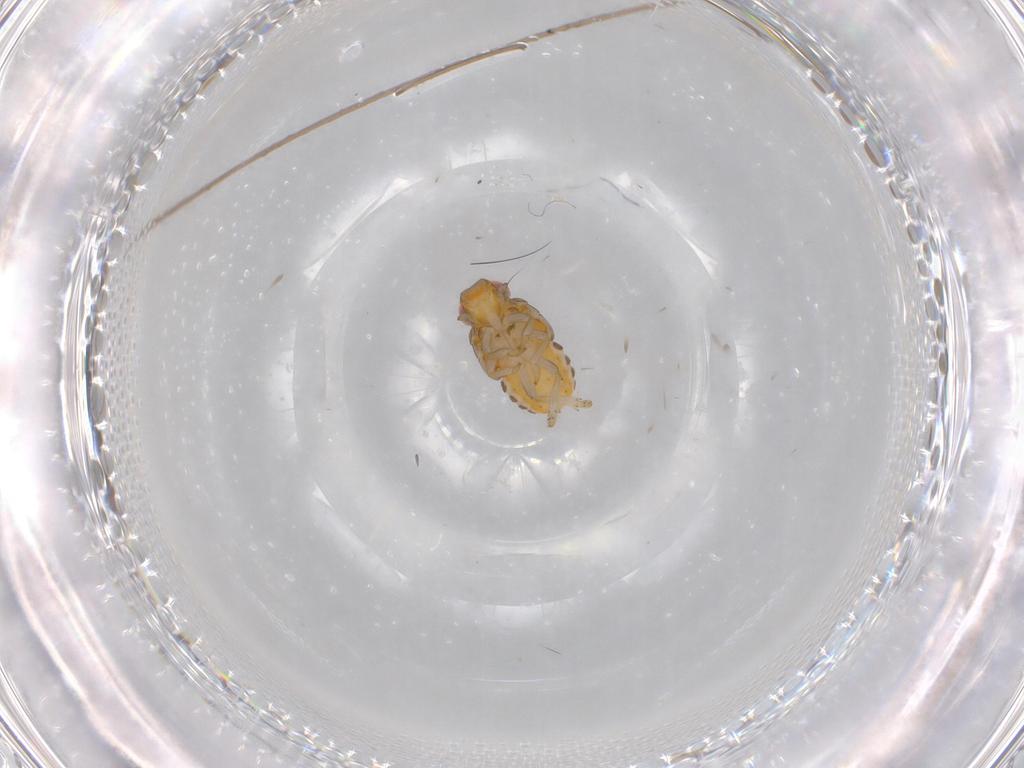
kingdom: Animalia
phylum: Arthropoda
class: Insecta
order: Hemiptera
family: Issidae
